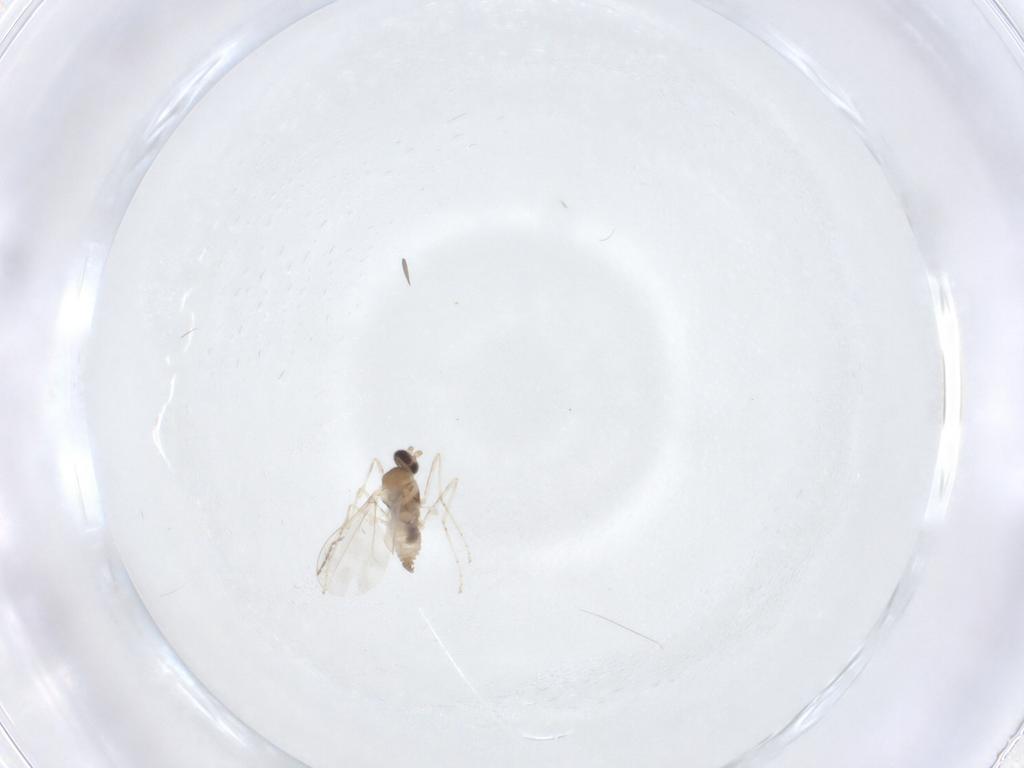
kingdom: Animalia
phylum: Arthropoda
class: Insecta
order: Diptera
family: Cecidomyiidae
